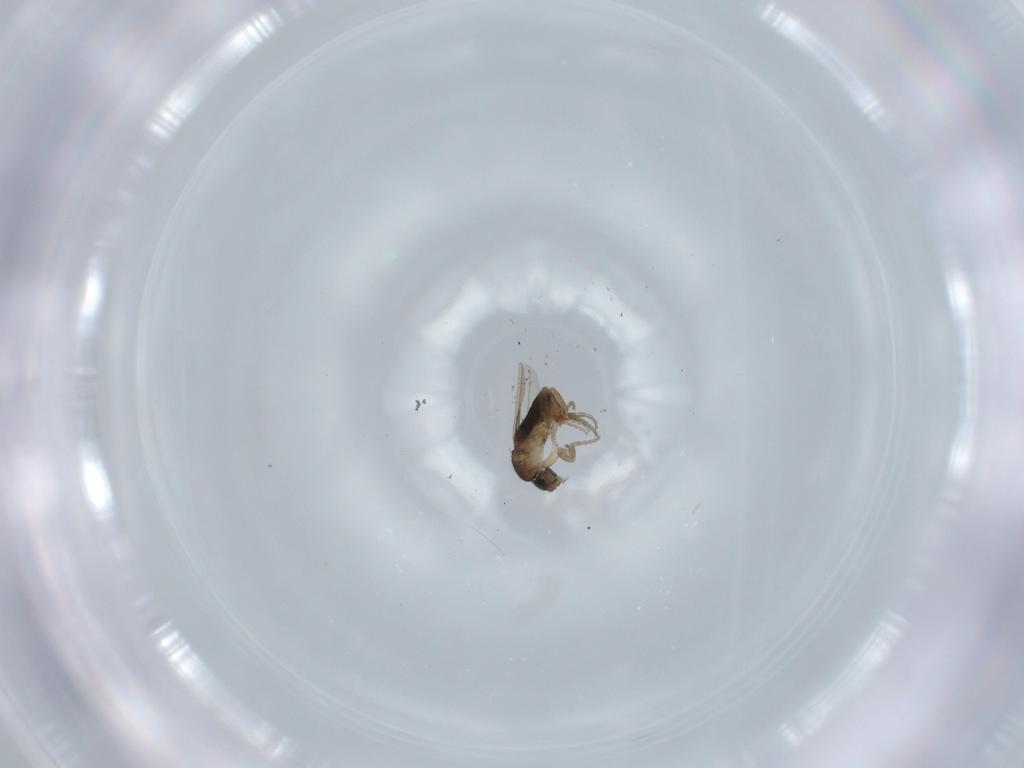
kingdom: Animalia
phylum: Arthropoda
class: Insecta
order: Diptera
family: Phoridae
